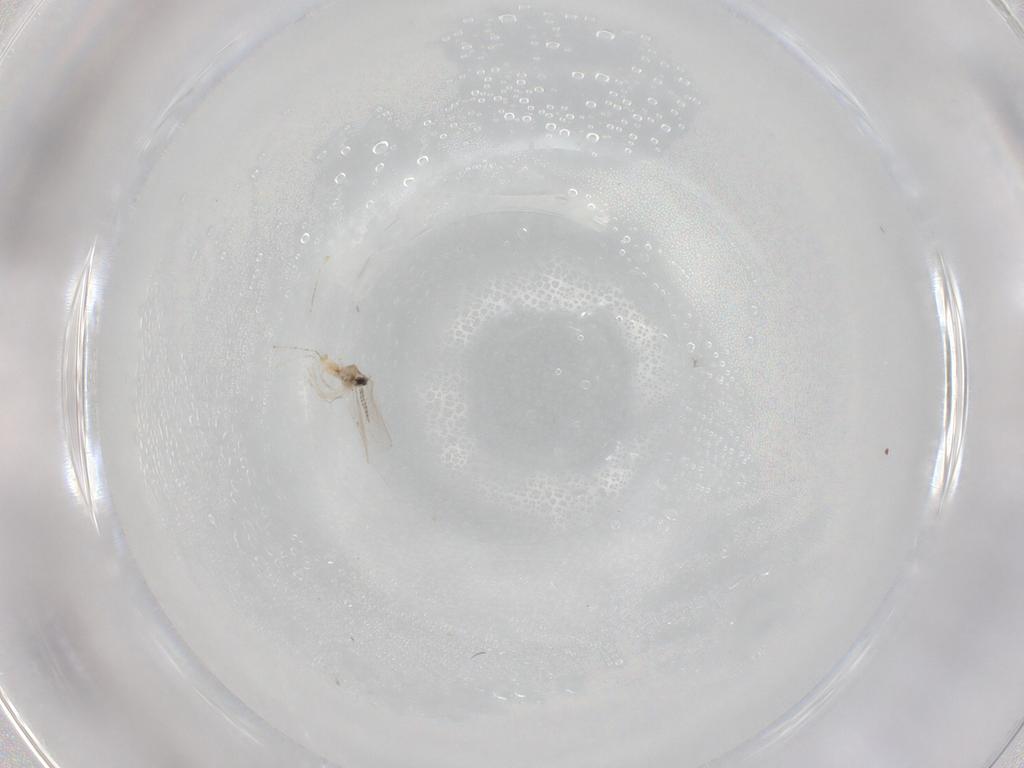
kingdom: Animalia
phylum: Arthropoda
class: Insecta
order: Diptera
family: Cecidomyiidae
